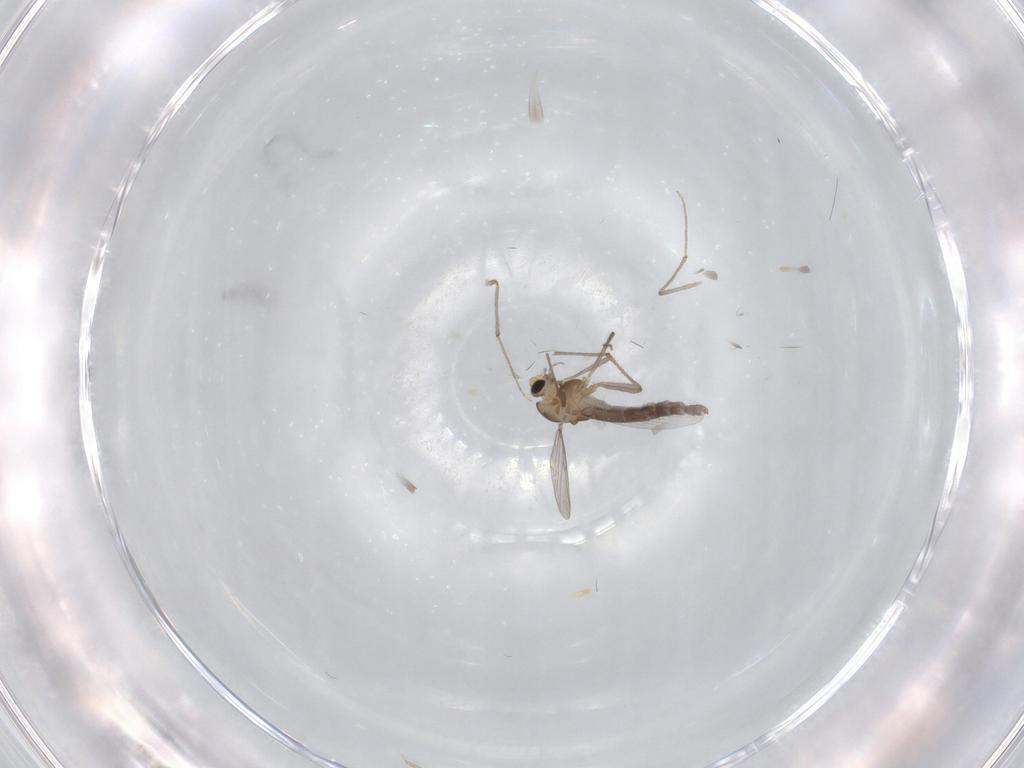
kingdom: Animalia
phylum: Arthropoda
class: Insecta
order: Diptera
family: Chironomidae
